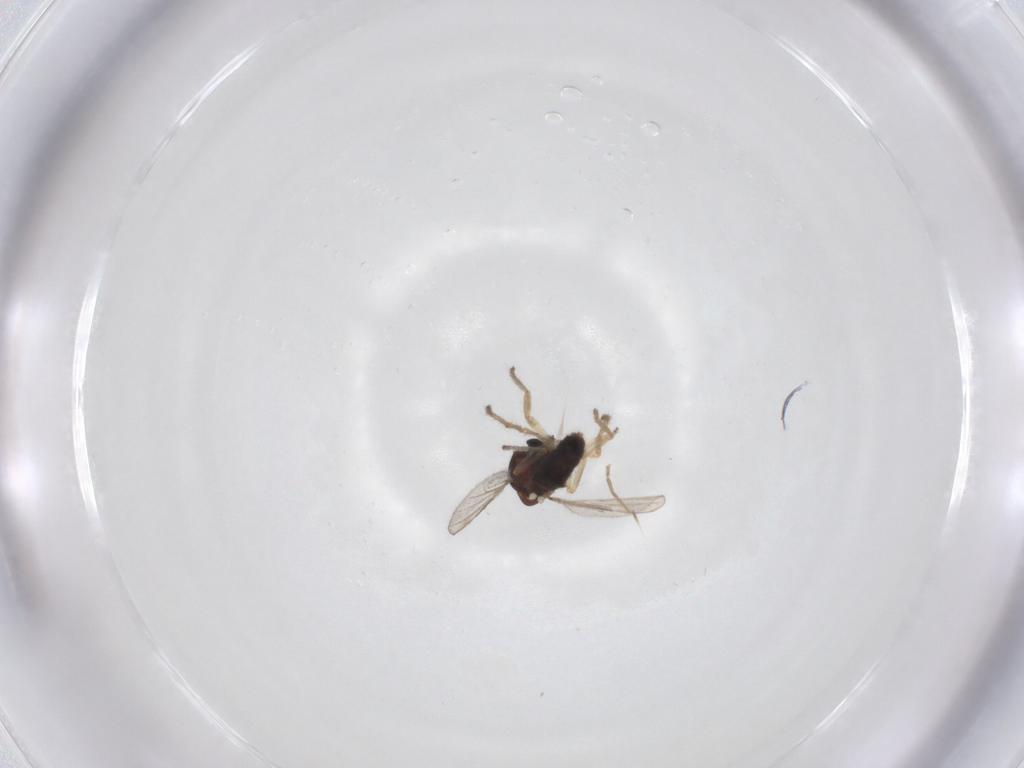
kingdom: Animalia
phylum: Arthropoda
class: Insecta
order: Diptera
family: Ceratopogonidae
